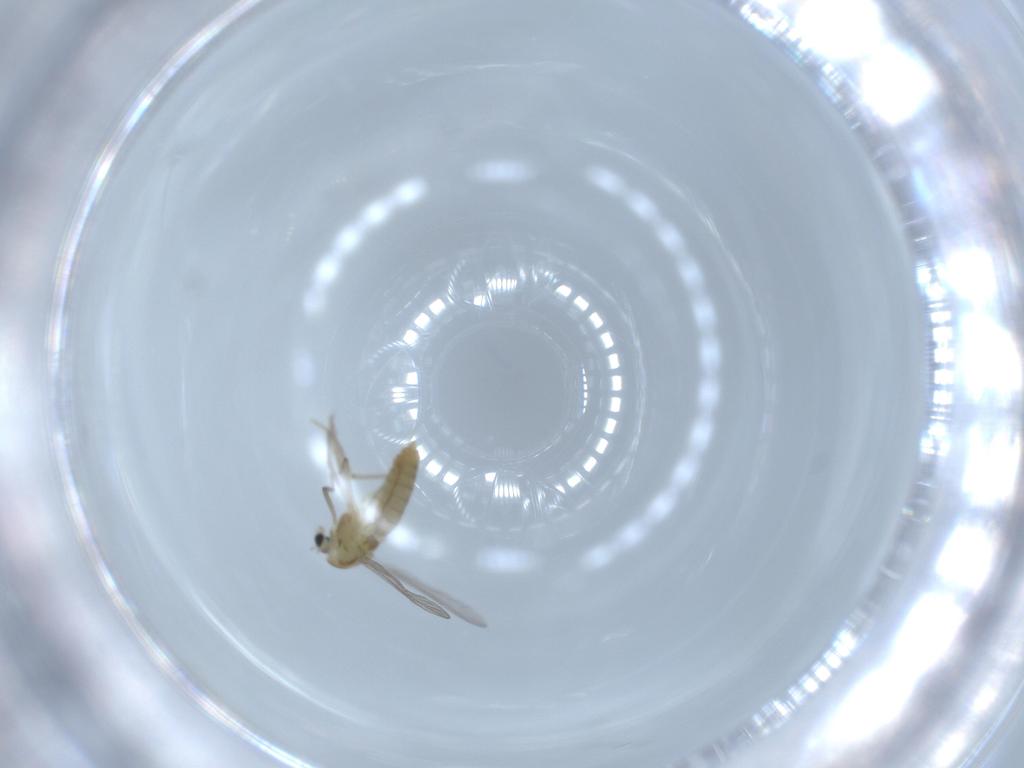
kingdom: Animalia
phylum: Arthropoda
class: Insecta
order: Diptera
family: Chironomidae
